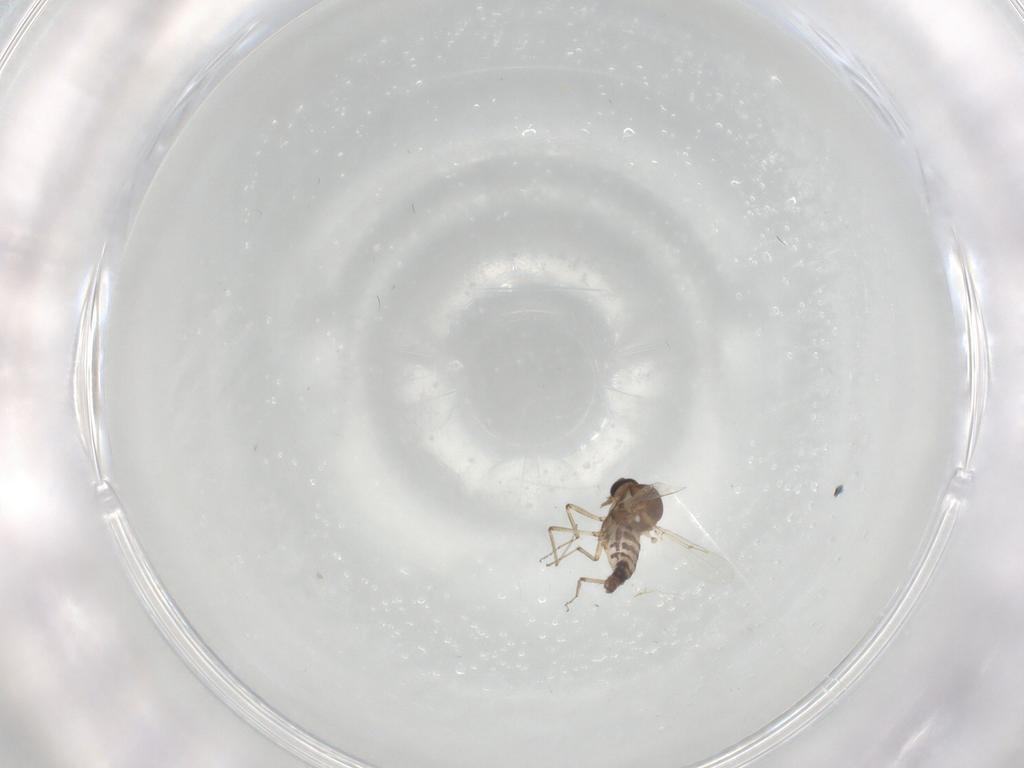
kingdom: Animalia
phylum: Arthropoda
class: Insecta
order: Diptera
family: Ceratopogonidae
